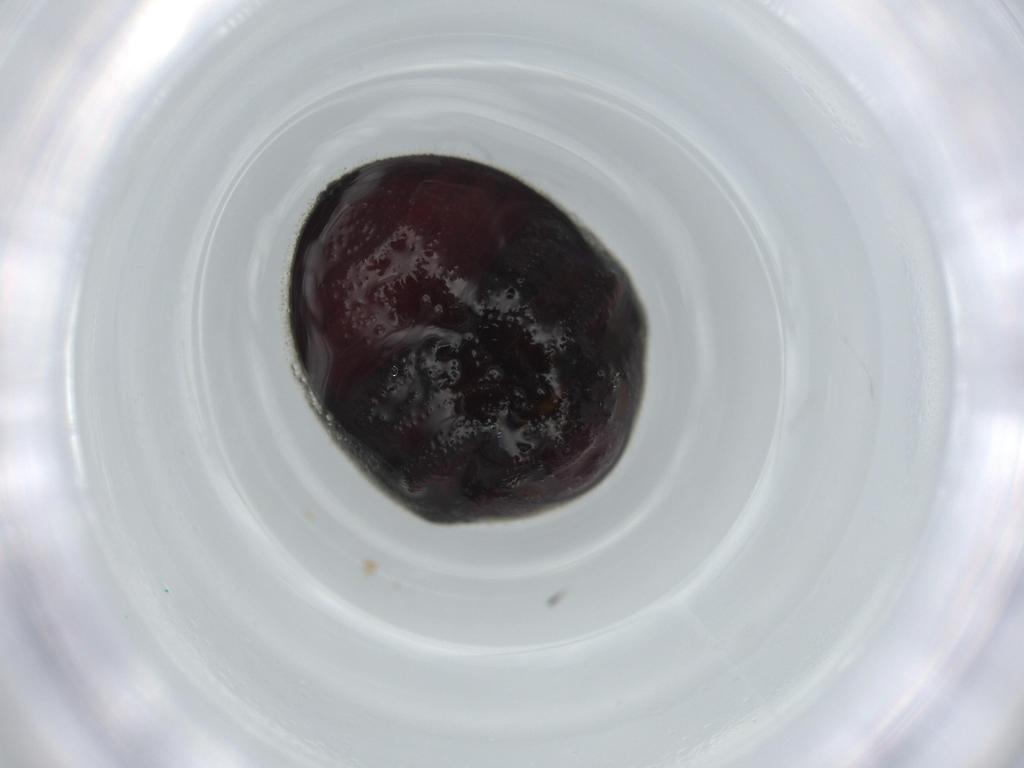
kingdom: Animalia
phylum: Arthropoda
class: Insecta
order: Coleoptera
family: Ptinidae
